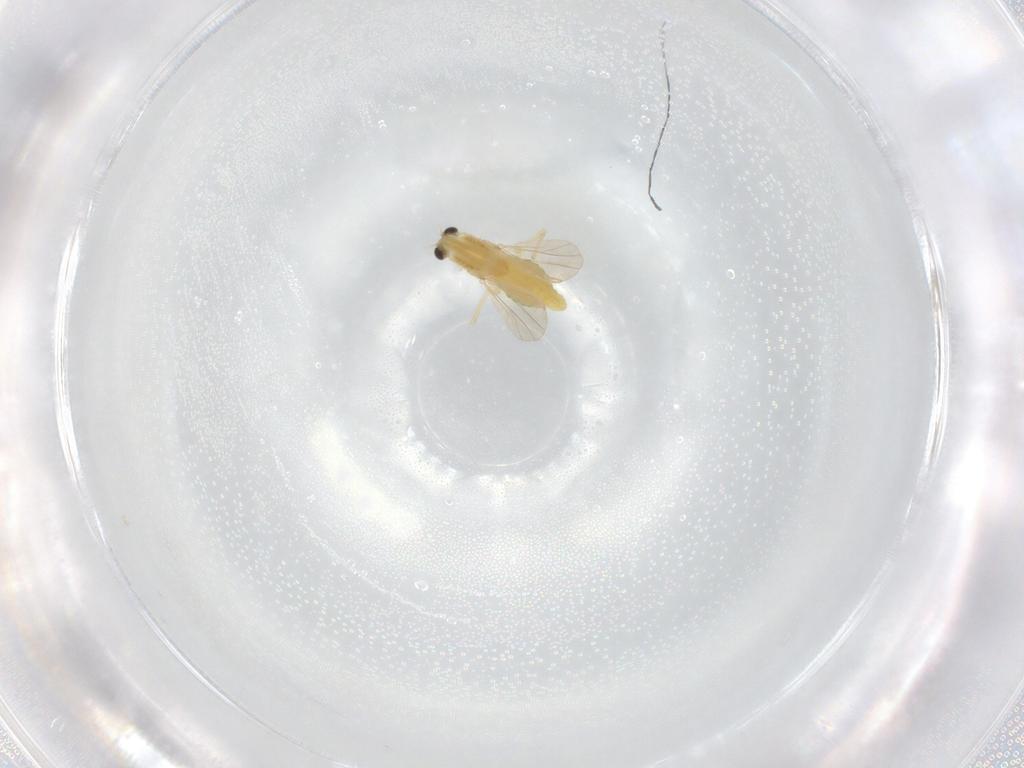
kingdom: Animalia
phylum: Arthropoda
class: Insecta
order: Diptera
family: Chironomidae
